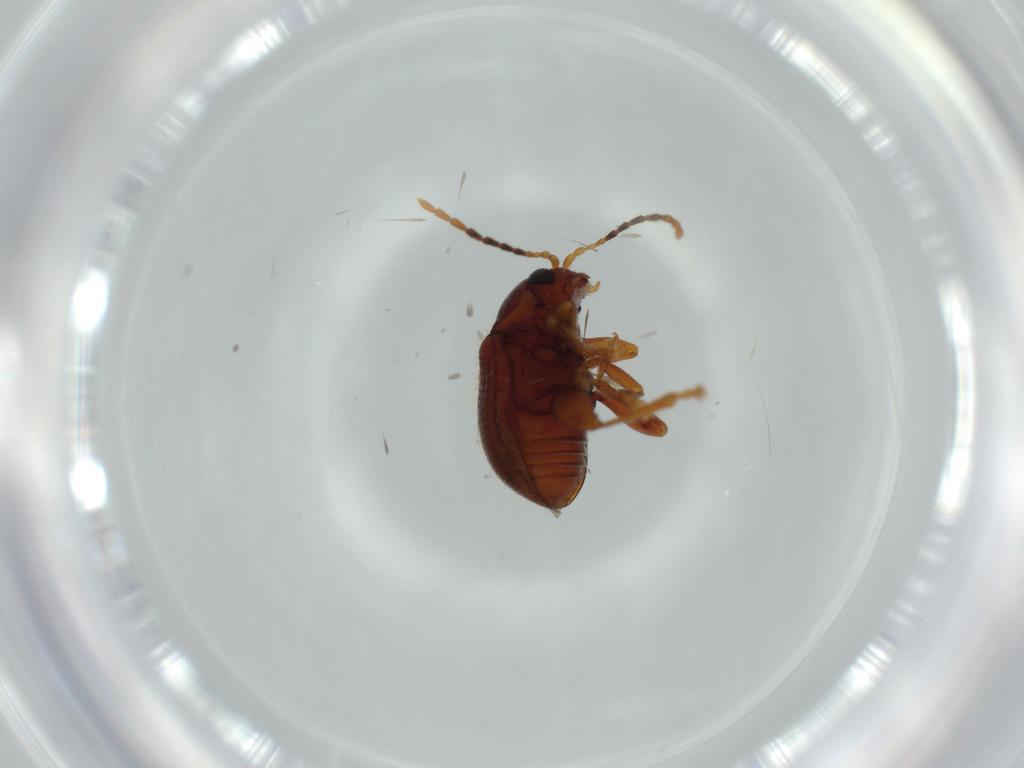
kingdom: Animalia
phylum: Arthropoda
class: Insecta
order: Coleoptera
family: Chrysomelidae
